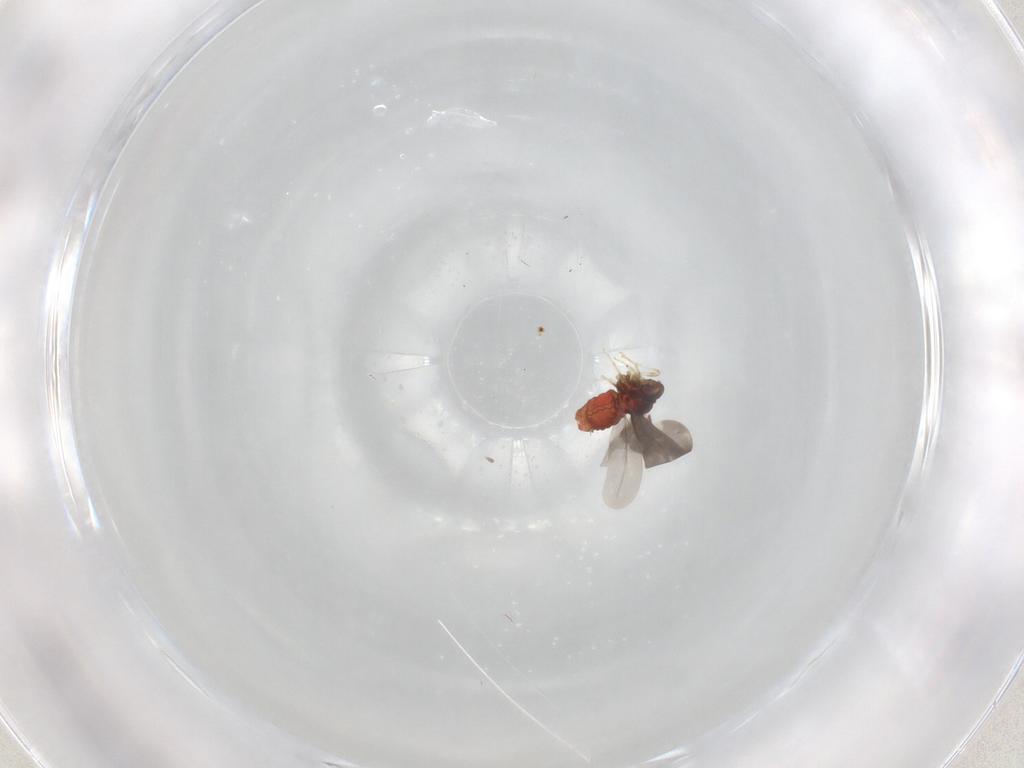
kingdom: Animalia
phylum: Arthropoda
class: Insecta
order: Hemiptera
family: Aleyrodidae
